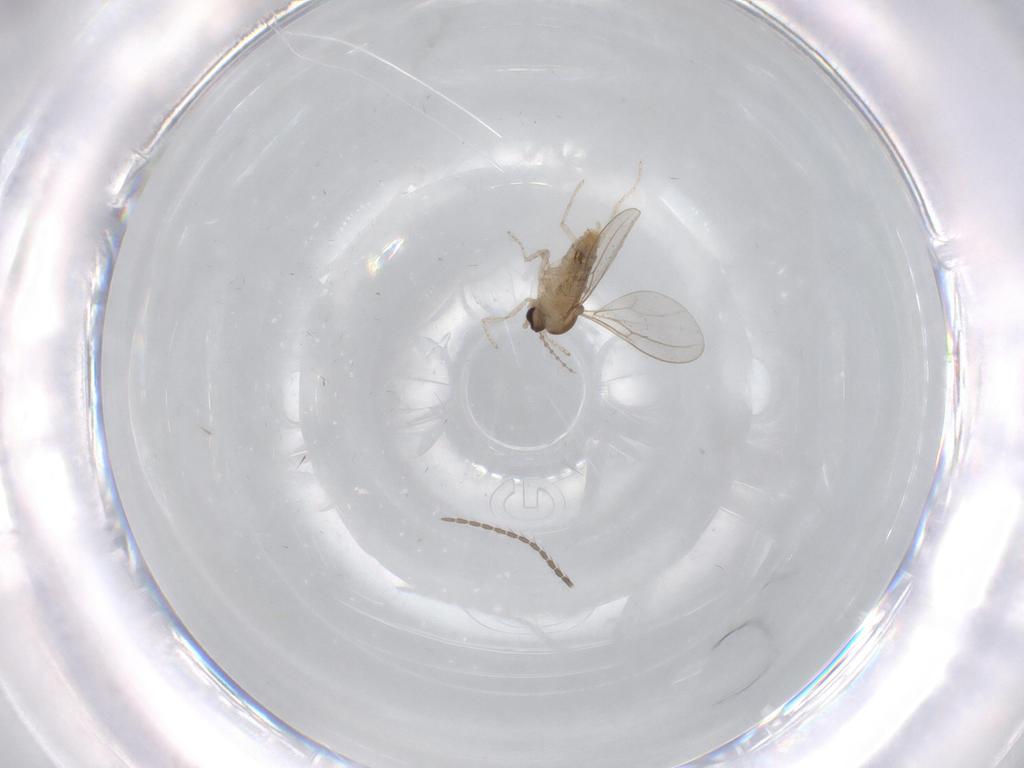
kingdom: Animalia
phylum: Arthropoda
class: Insecta
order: Diptera
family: Cecidomyiidae
